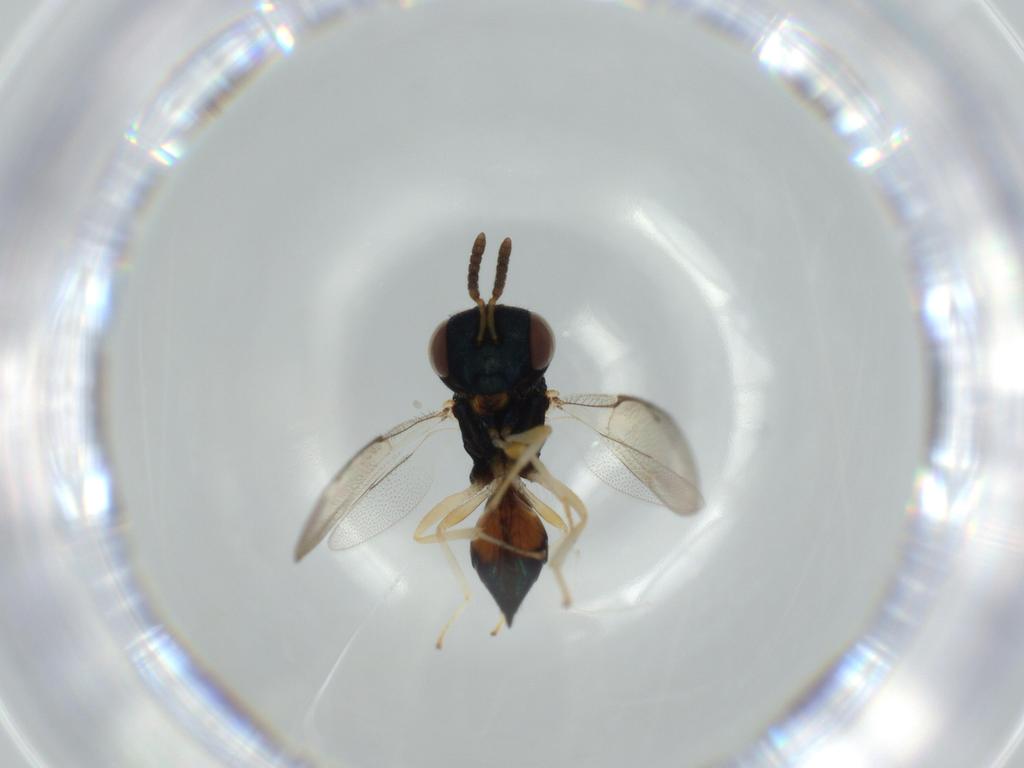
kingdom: Animalia
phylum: Arthropoda
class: Insecta
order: Hymenoptera
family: Pteromalidae
